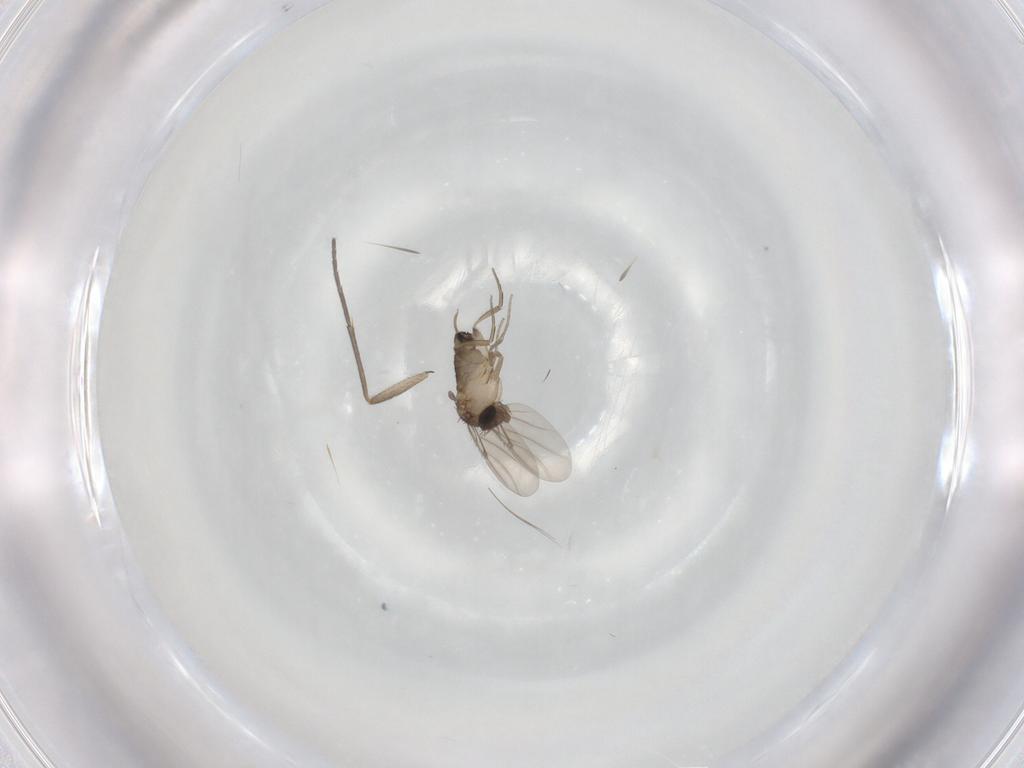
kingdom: Animalia
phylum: Arthropoda
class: Insecta
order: Diptera
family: Phoridae
